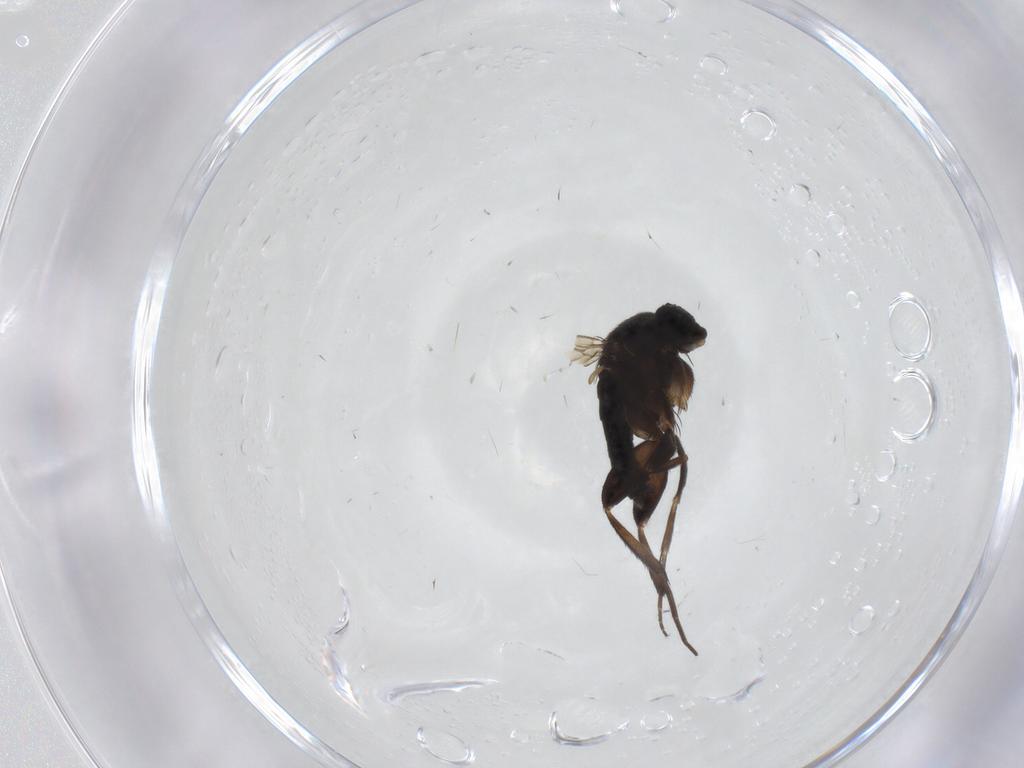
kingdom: Animalia
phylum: Arthropoda
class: Insecta
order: Diptera
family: Phoridae
